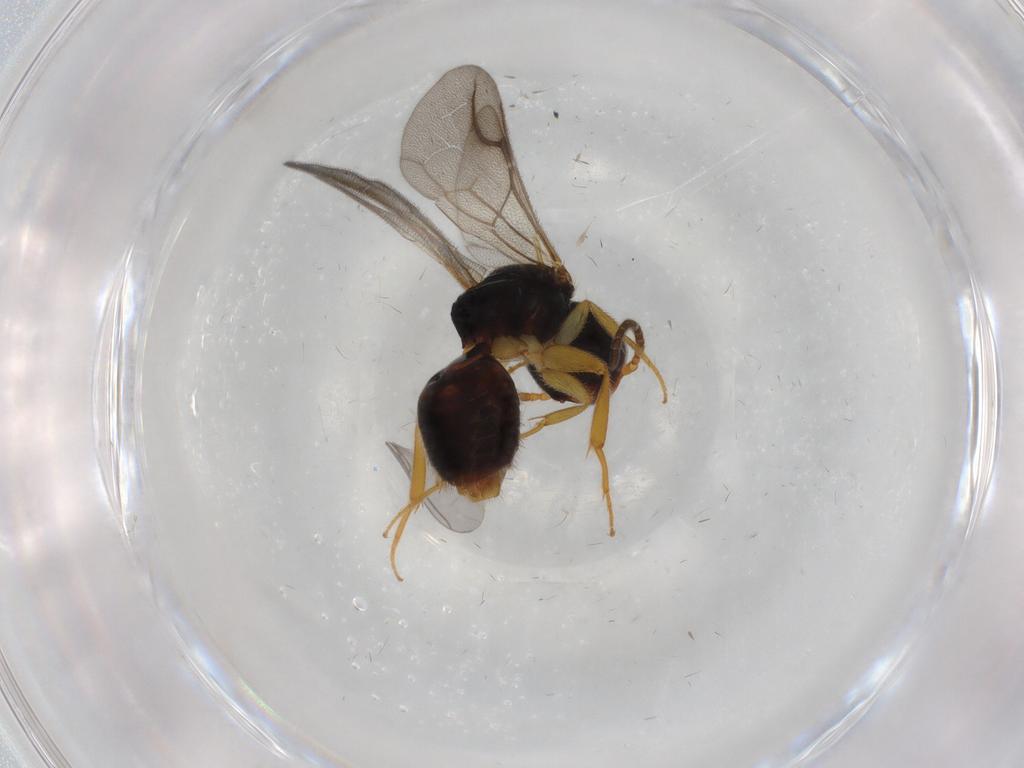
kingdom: Animalia
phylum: Arthropoda
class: Insecta
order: Hymenoptera
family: Bethylidae
